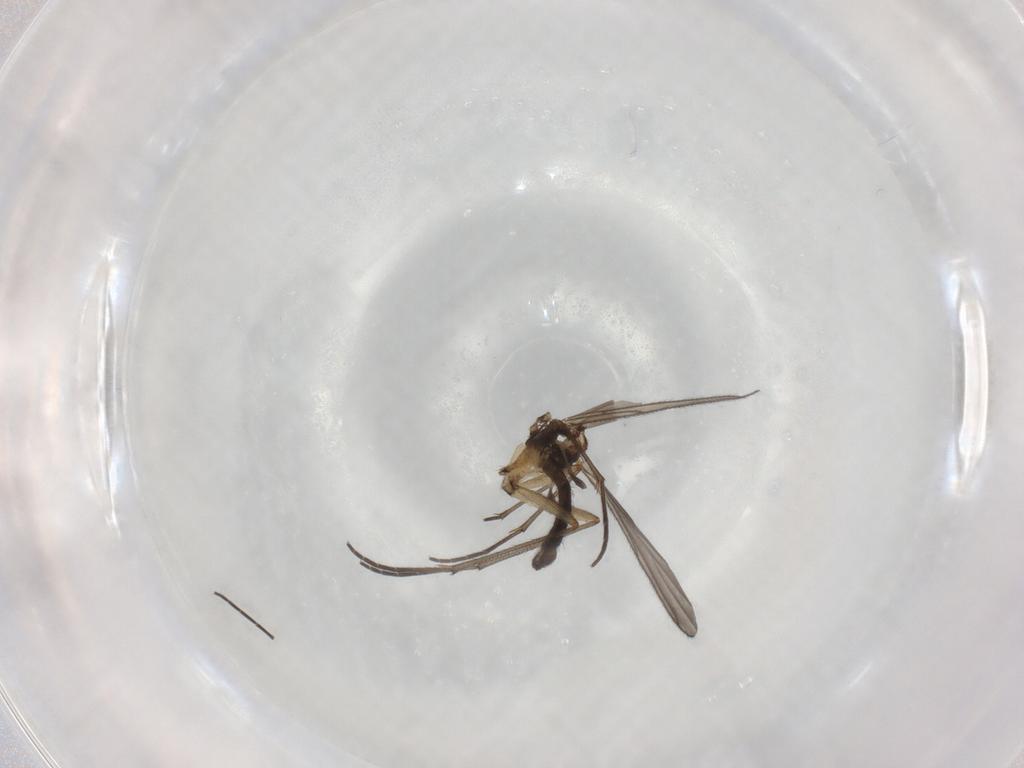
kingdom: Animalia
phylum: Arthropoda
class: Insecta
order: Diptera
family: Sciaridae
